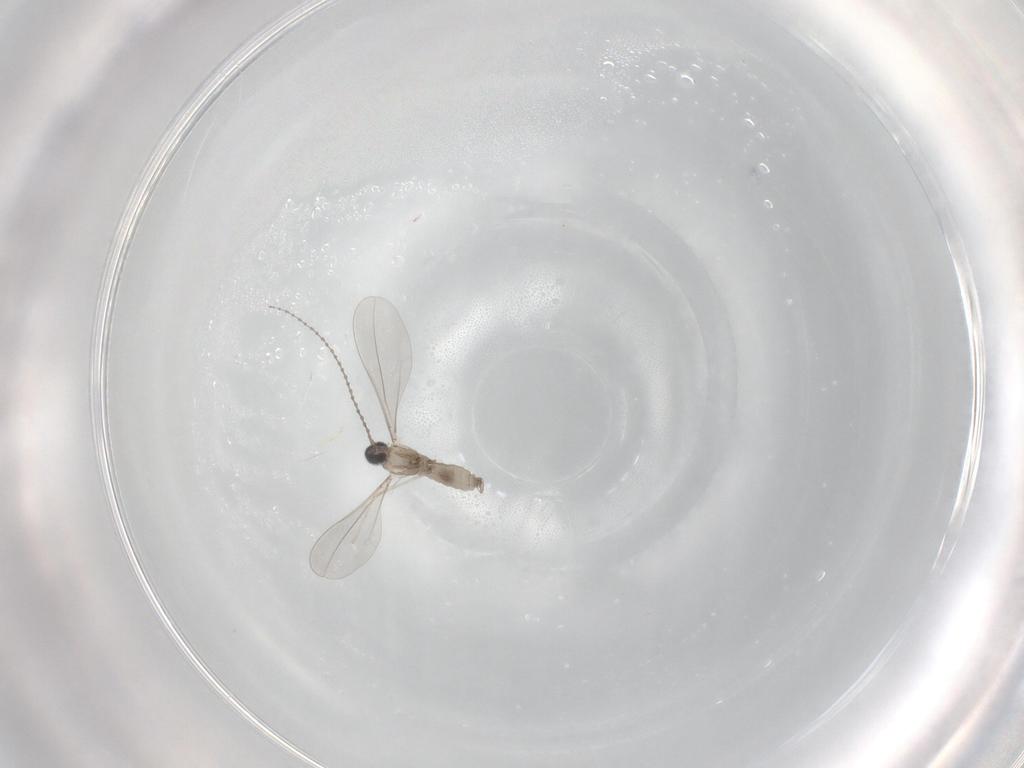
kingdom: Animalia
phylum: Arthropoda
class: Insecta
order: Diptera
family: Cecidomyiidae
